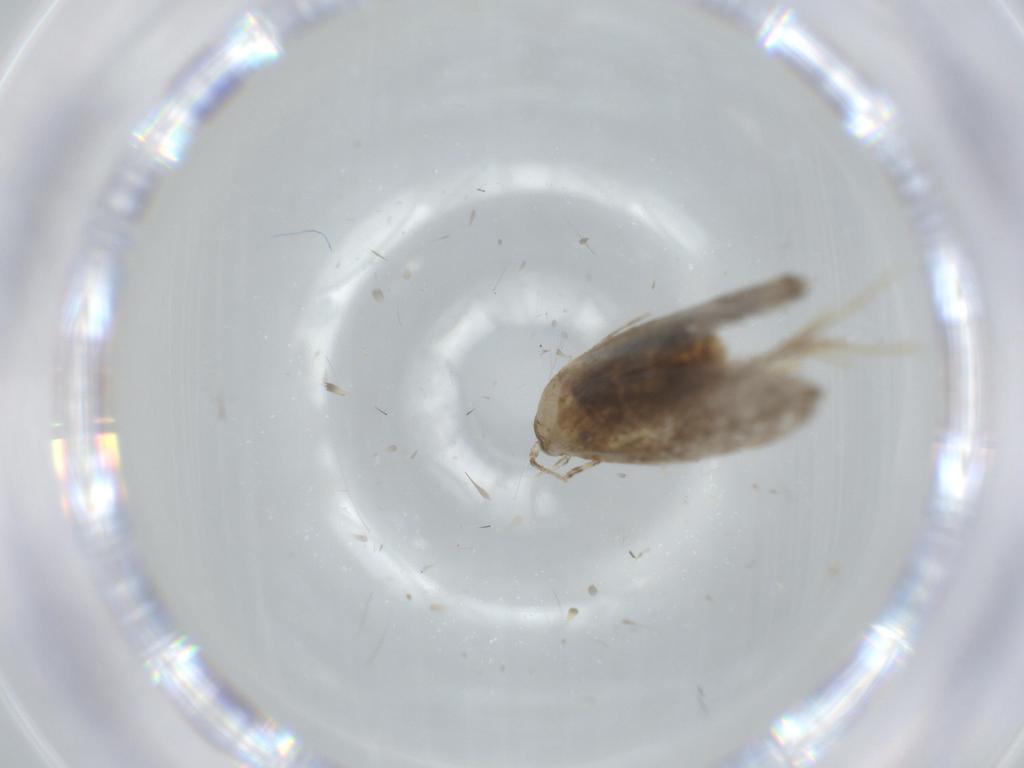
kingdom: Animalia
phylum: Arthropoda
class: Insecta
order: Lepidoptera
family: Tineidae
